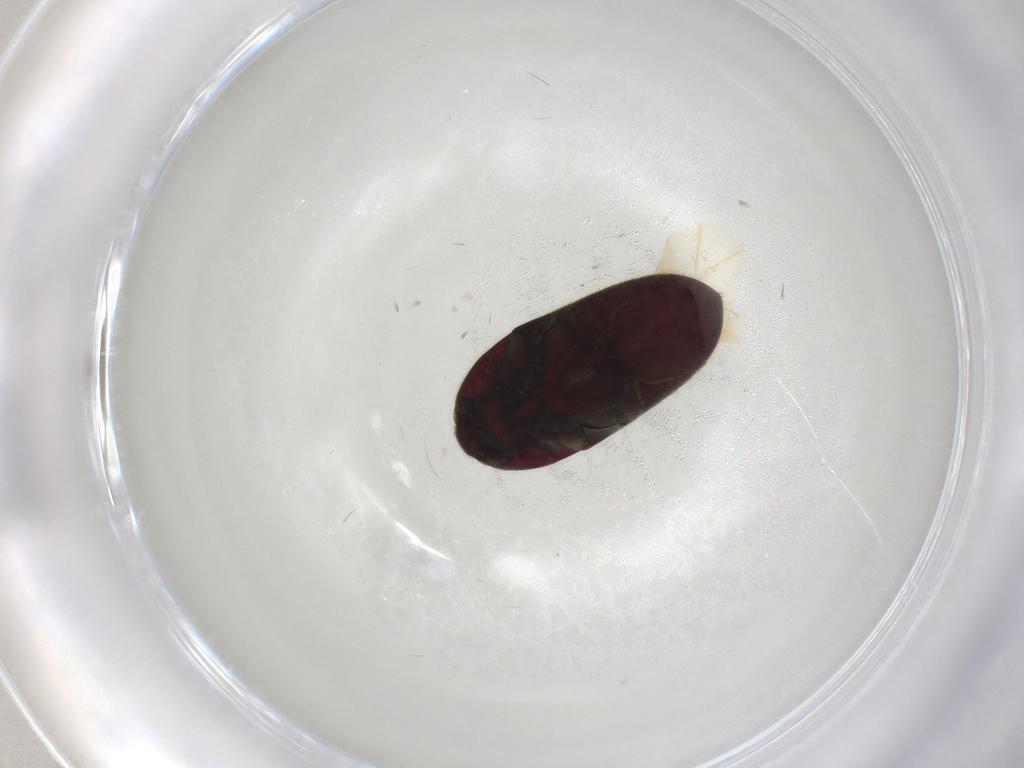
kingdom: Animalia
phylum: Arthropoda
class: Insecta
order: Coleoptera
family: Throscidae
